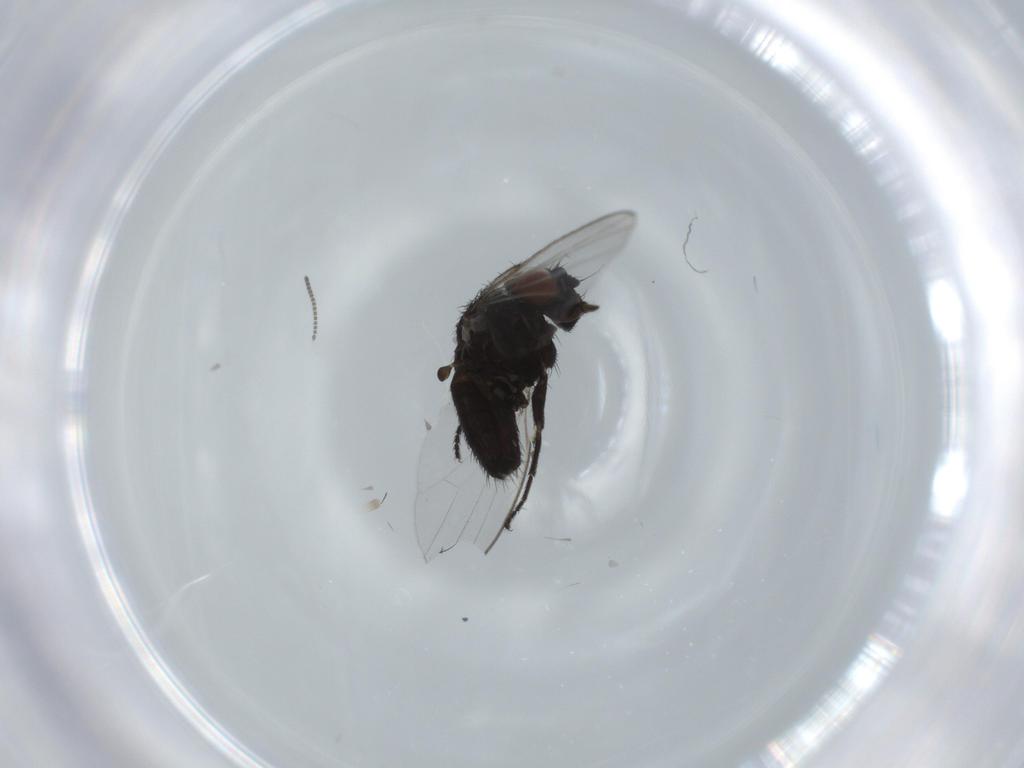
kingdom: Animalia
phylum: Arthropoda
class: Insecta
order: Diptera
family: Milichiidae
